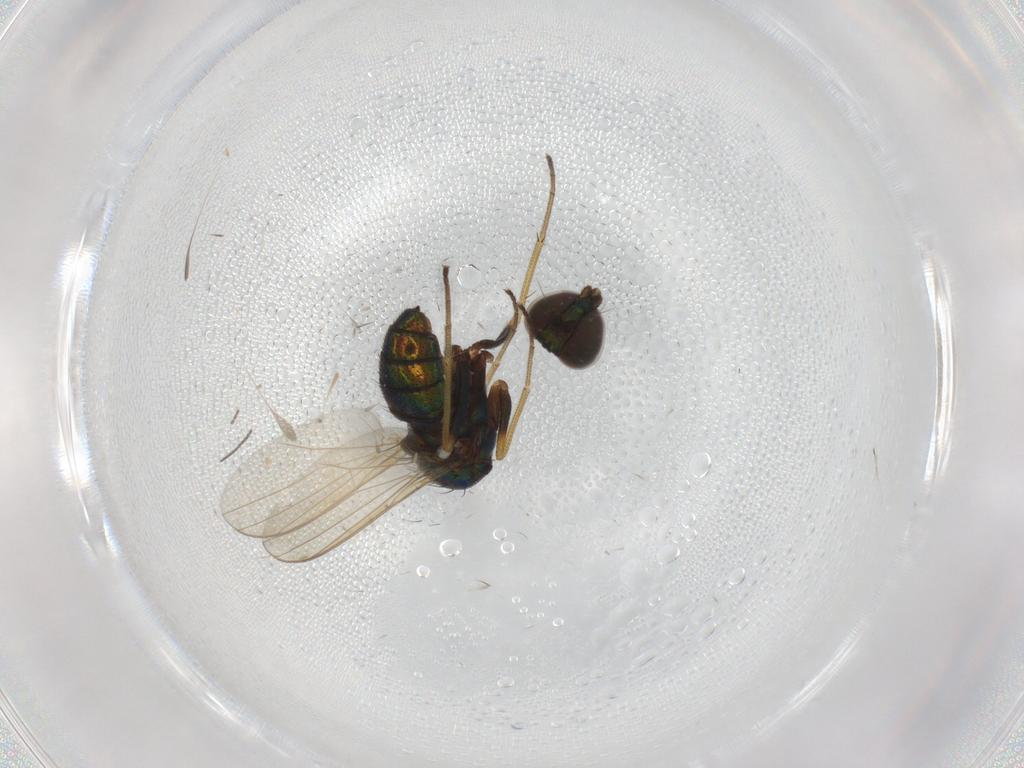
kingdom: Animalia
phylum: Arthropoda
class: Insecta
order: Diptera
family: Dolichopodidae
